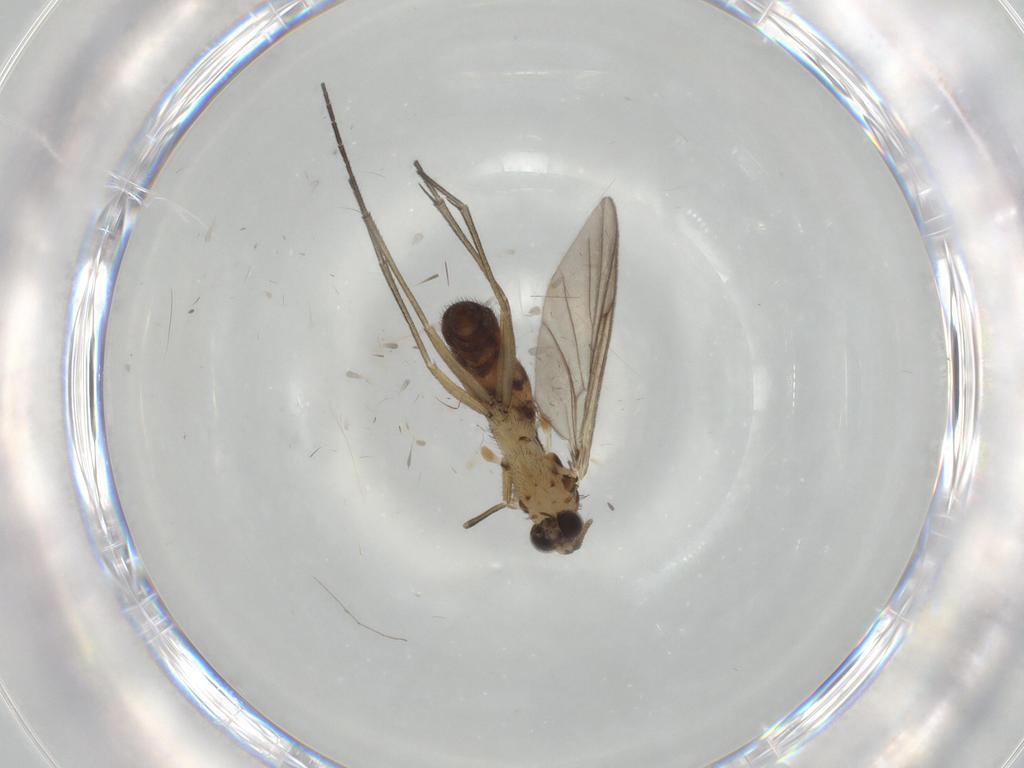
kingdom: Animalia
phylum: Arthropoda
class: Insecta
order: Diptera
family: Keroplatidae
